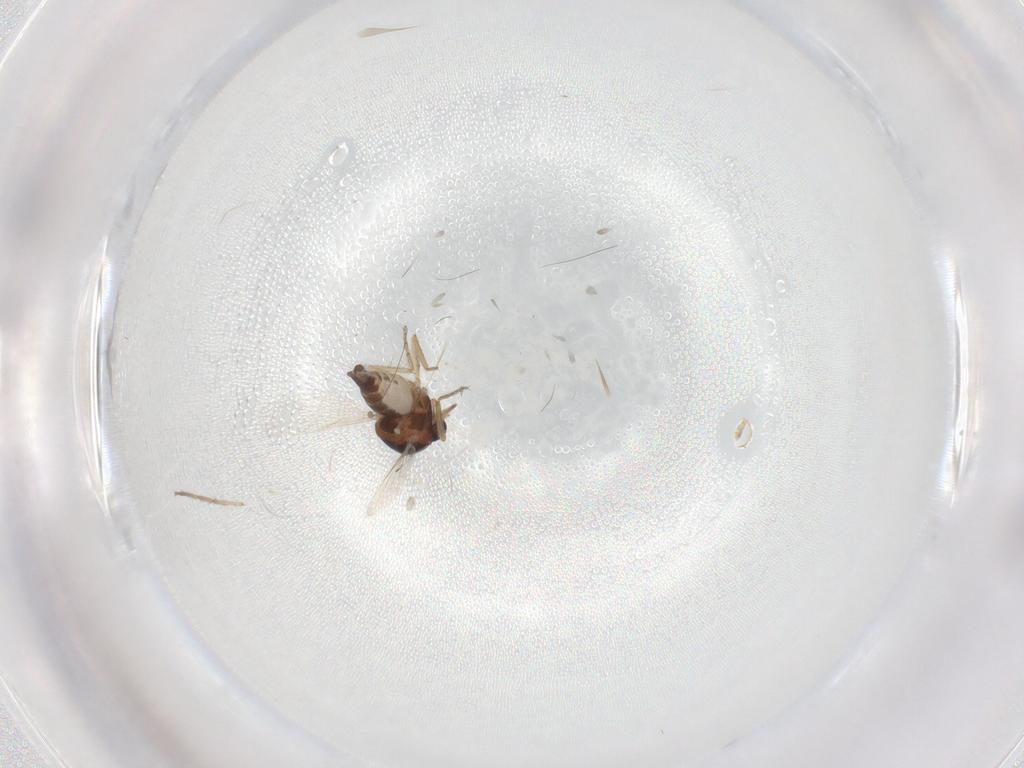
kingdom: Animalia
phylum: Arthropoda
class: Insecta
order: Diptera
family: Ceratopogonidae
